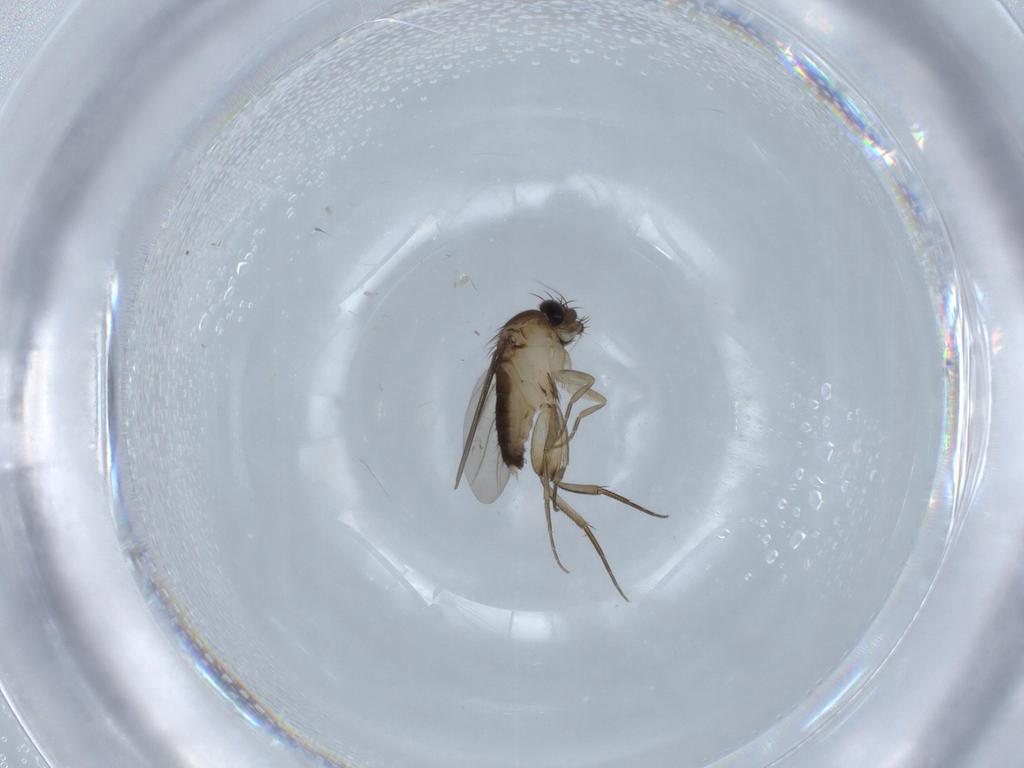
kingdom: Animalia
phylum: Arthropoda
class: Insecta
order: Diptera
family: Phoridae
